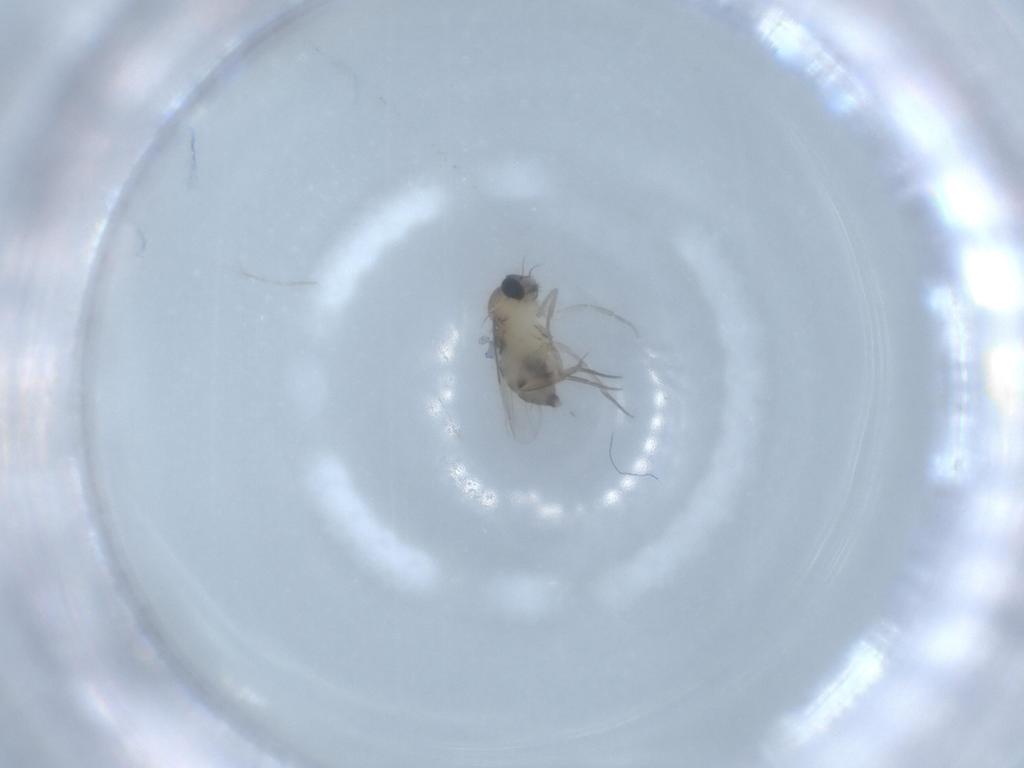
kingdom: Animalia
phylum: Arthropoda
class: Insecta
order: Diptera
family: Phoridae
